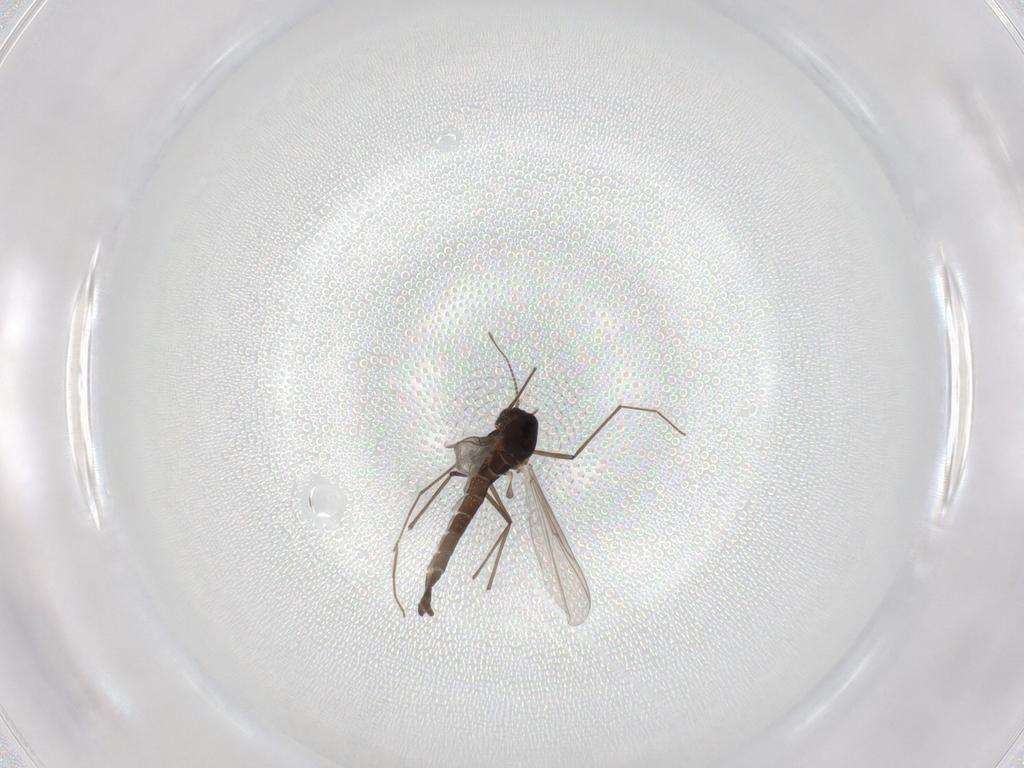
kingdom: Animalia
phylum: Arthropoda
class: Insecta
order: Diptera
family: Chironomidae
